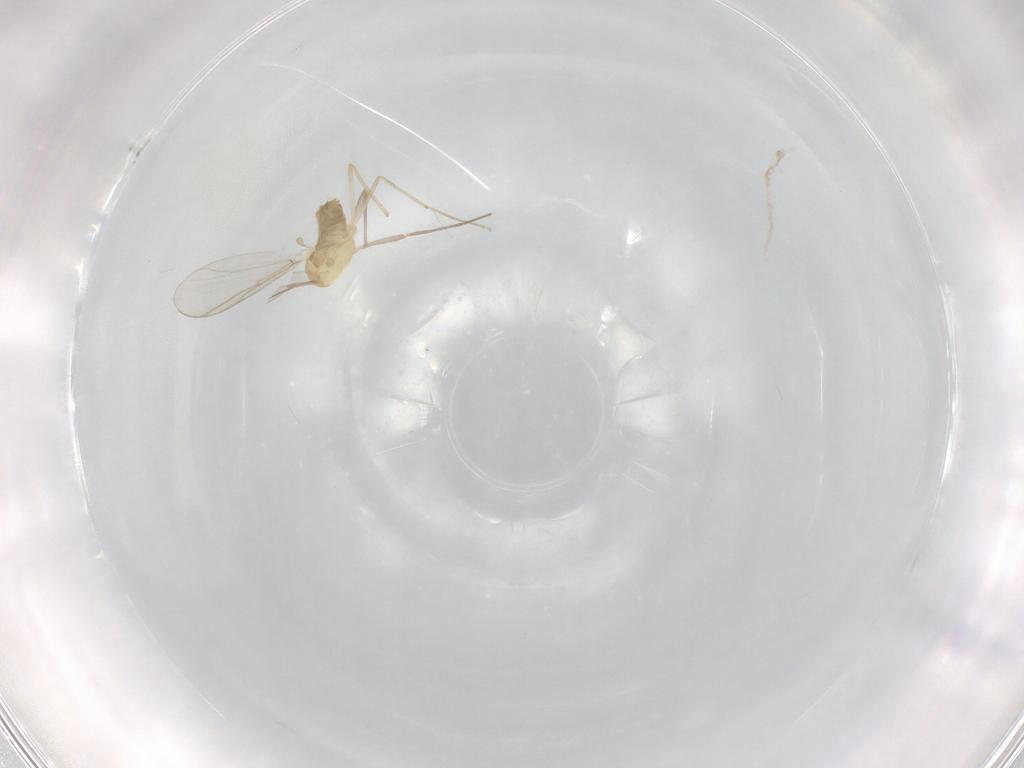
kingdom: Animalia
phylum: Arthropoda
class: Insecta
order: Diptera
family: Chironomidae
